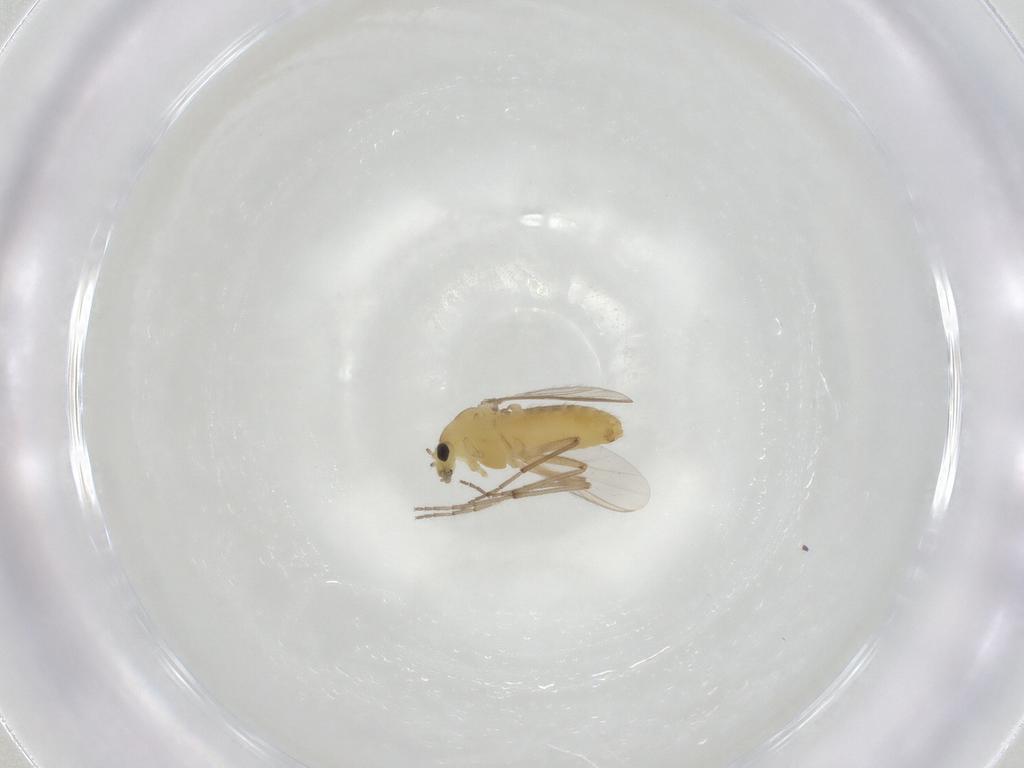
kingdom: Animalia
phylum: Arthropoda
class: Insecta
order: Diptera
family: Chironomidae
